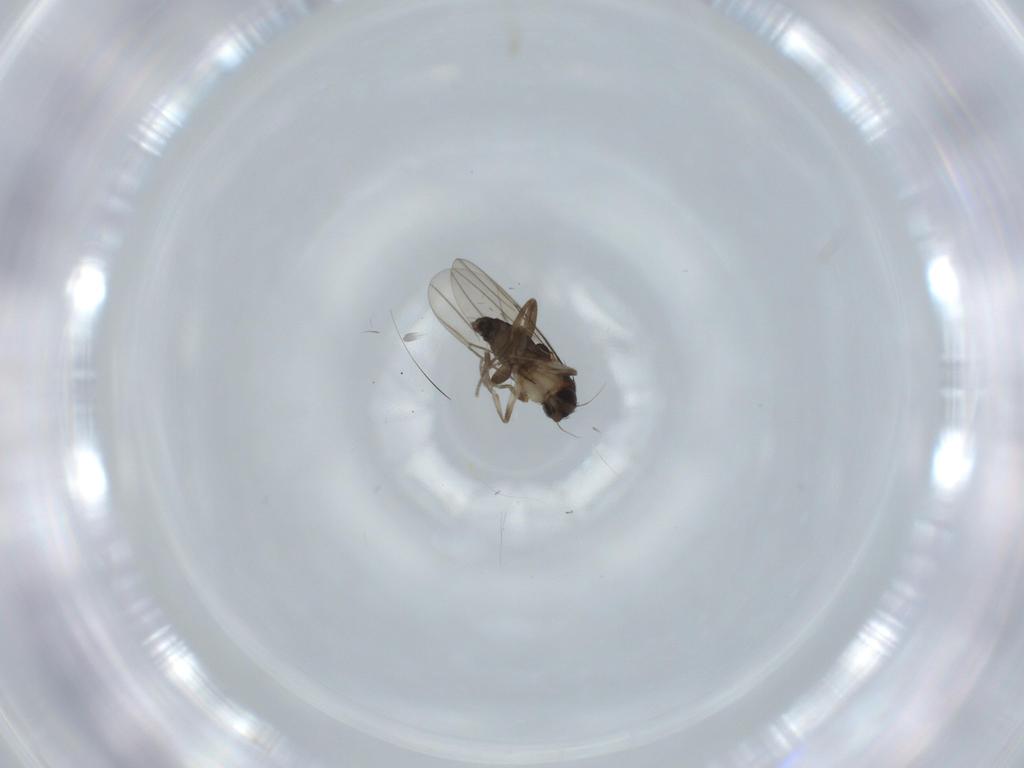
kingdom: Animalia
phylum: Arthropoda
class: Insecta
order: Diptera
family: Phoridae
